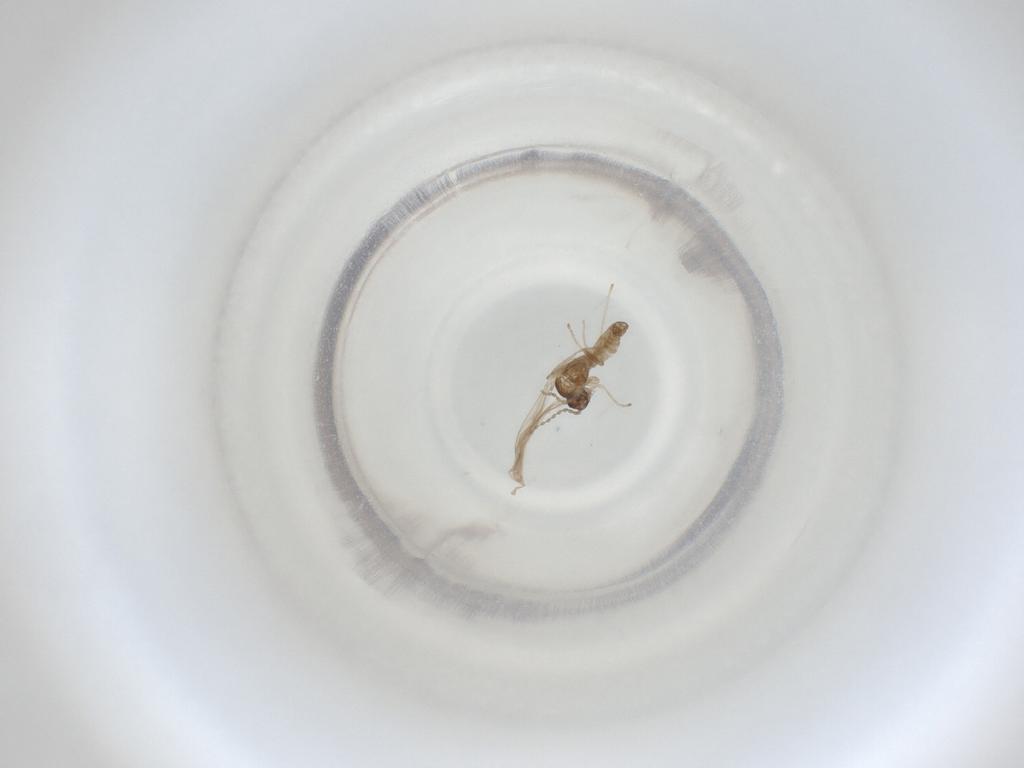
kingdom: Animalia
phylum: Arthropoda
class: Insecta
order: Diptera
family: Cecidomyiidae
